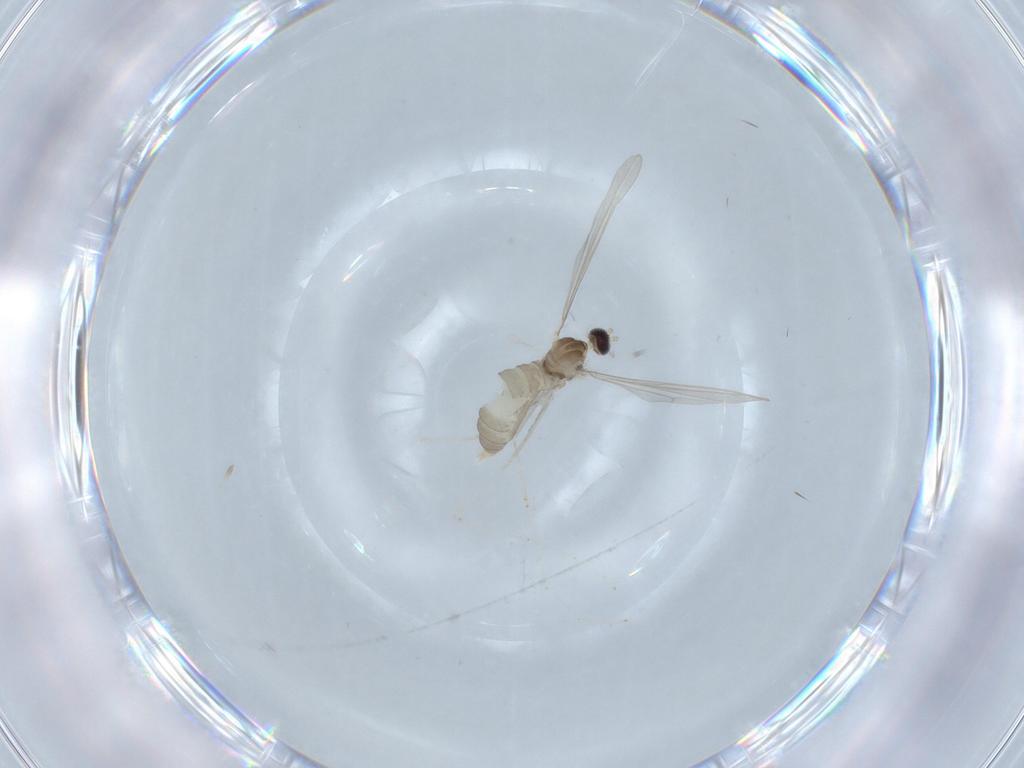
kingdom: Animalia
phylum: Arthropoda
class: Insecta
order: Diptera
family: Cecidomyiidae
